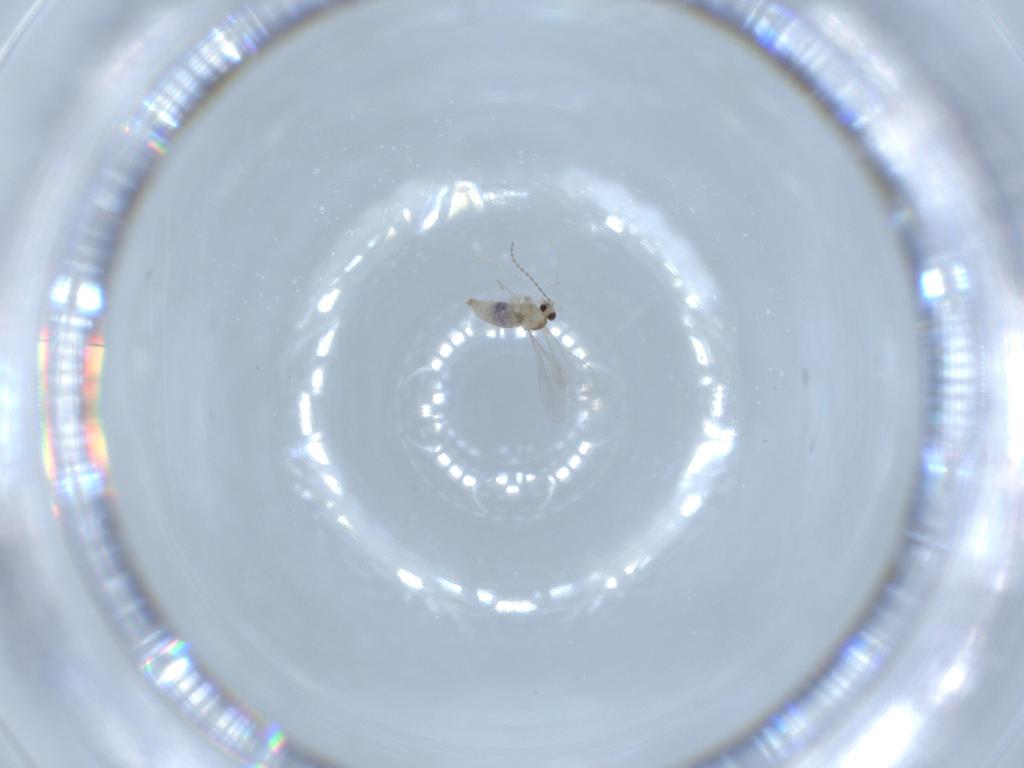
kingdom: Animalia
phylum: Arthropoda
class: Insecta
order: Diptera
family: Cecidomyiidae
